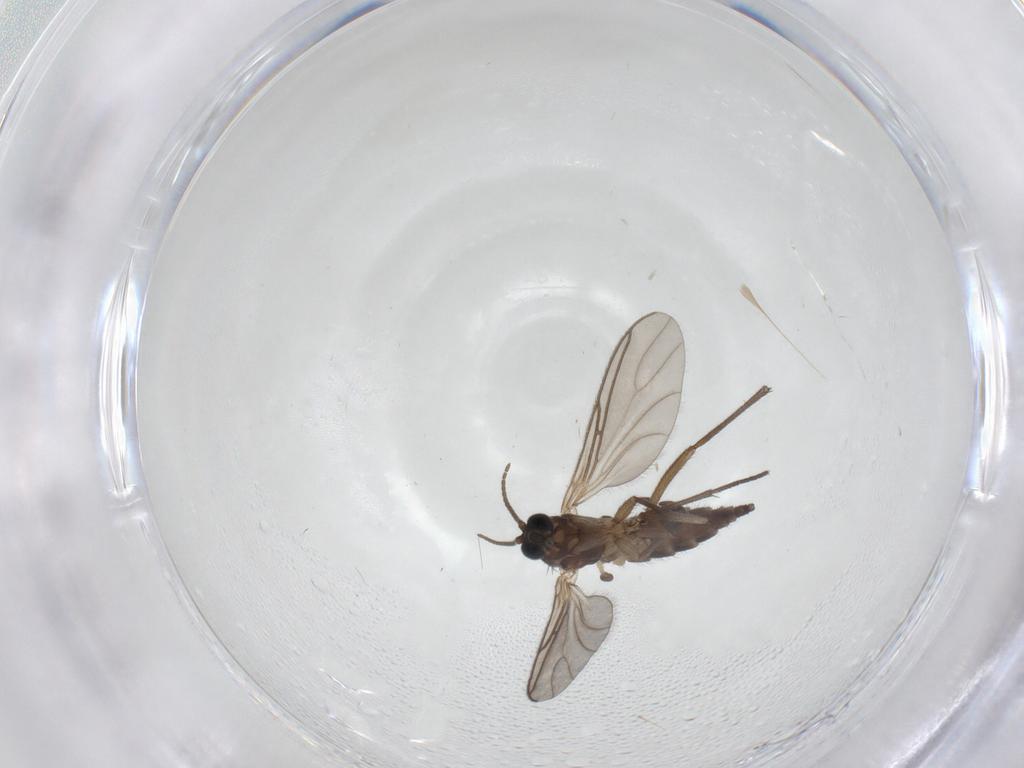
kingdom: Animalia
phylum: Arthropoda
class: Insecta
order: Diptera
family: Sciaridae
